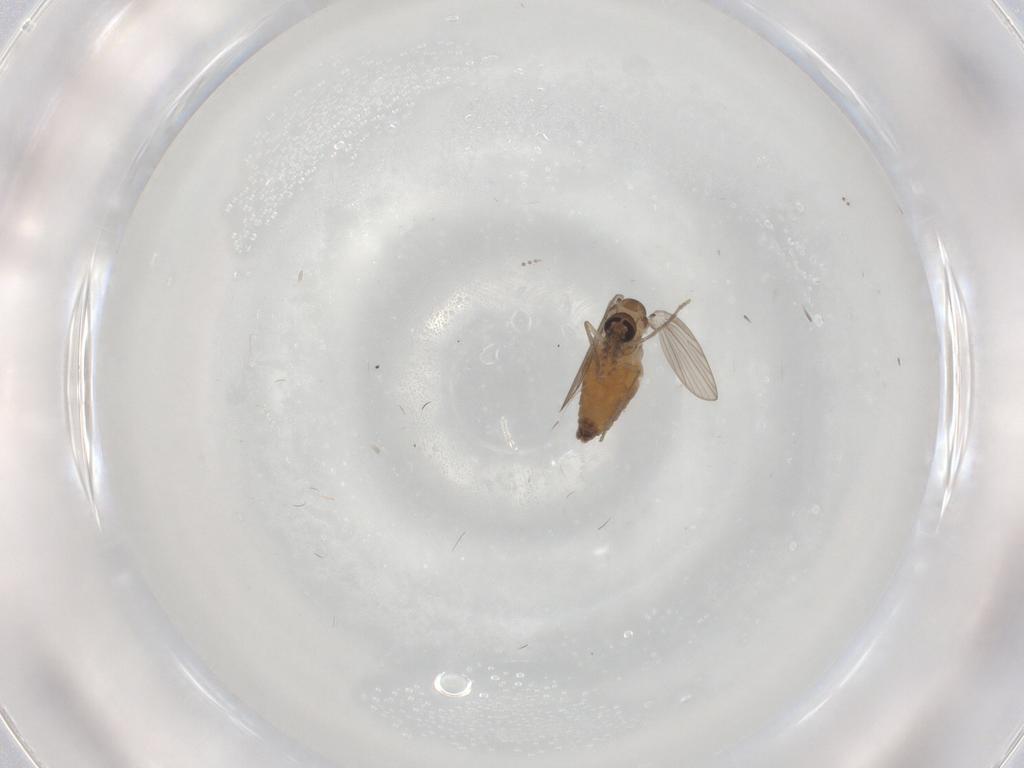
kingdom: Animalia
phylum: Arthropoda
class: Insecta
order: Diptera
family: Psychodidae
